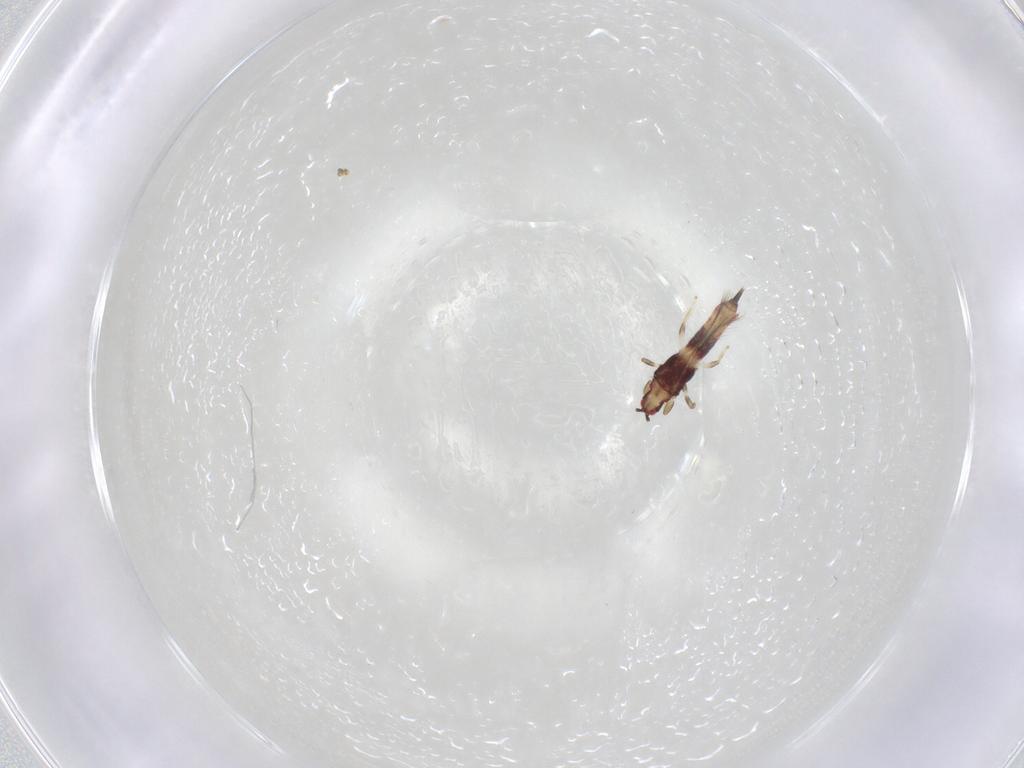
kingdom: Animalia
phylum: Arthropoda
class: Insecta
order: Thysanoptera
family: Phlaeothripidae
